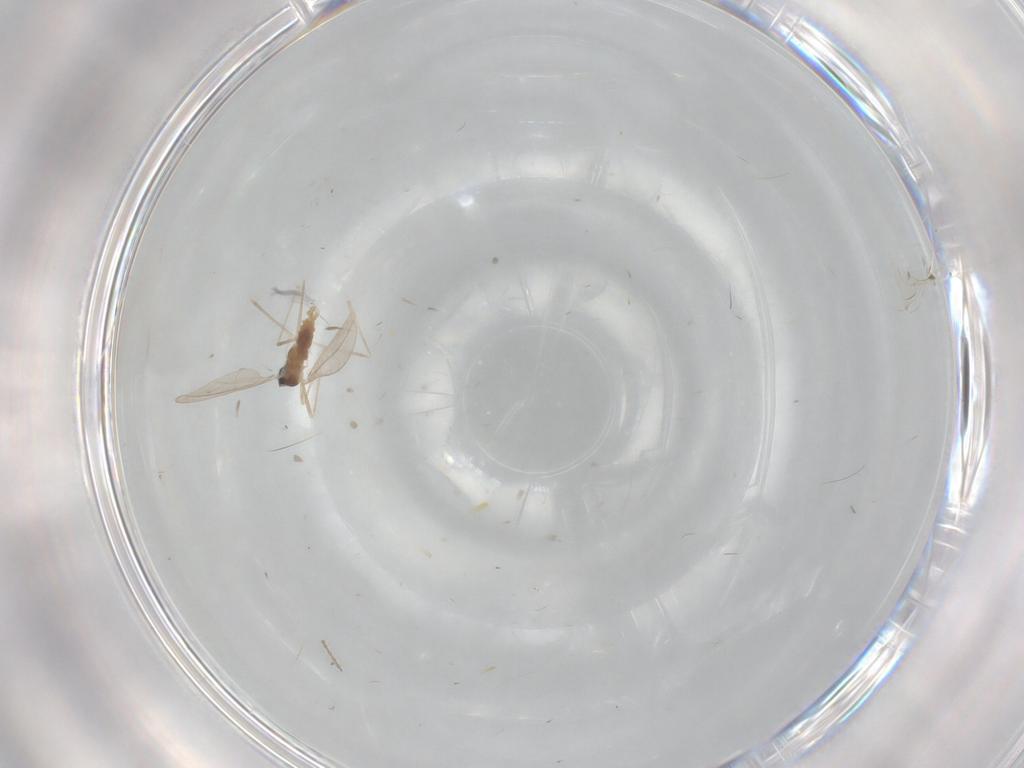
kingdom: Animalia
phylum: Arthropoda
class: Insecta
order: Diptera
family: Cecidomyiidae
